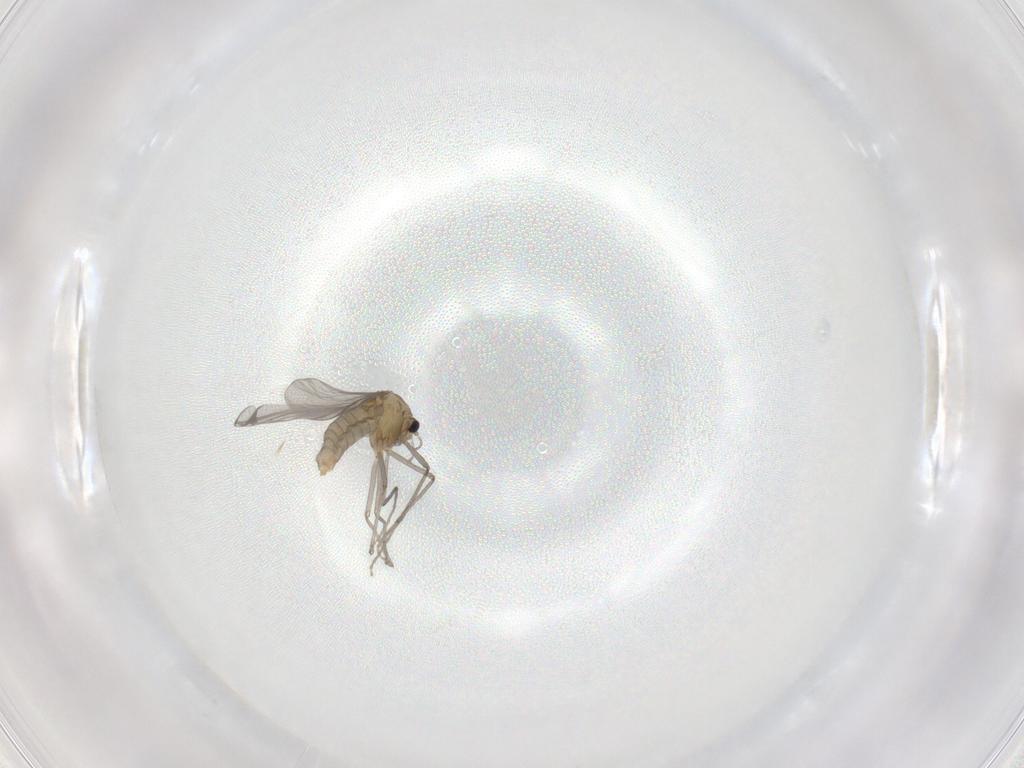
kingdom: Animalia
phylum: Arthropoda
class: Insecta
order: Diptera
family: Chironomidae
